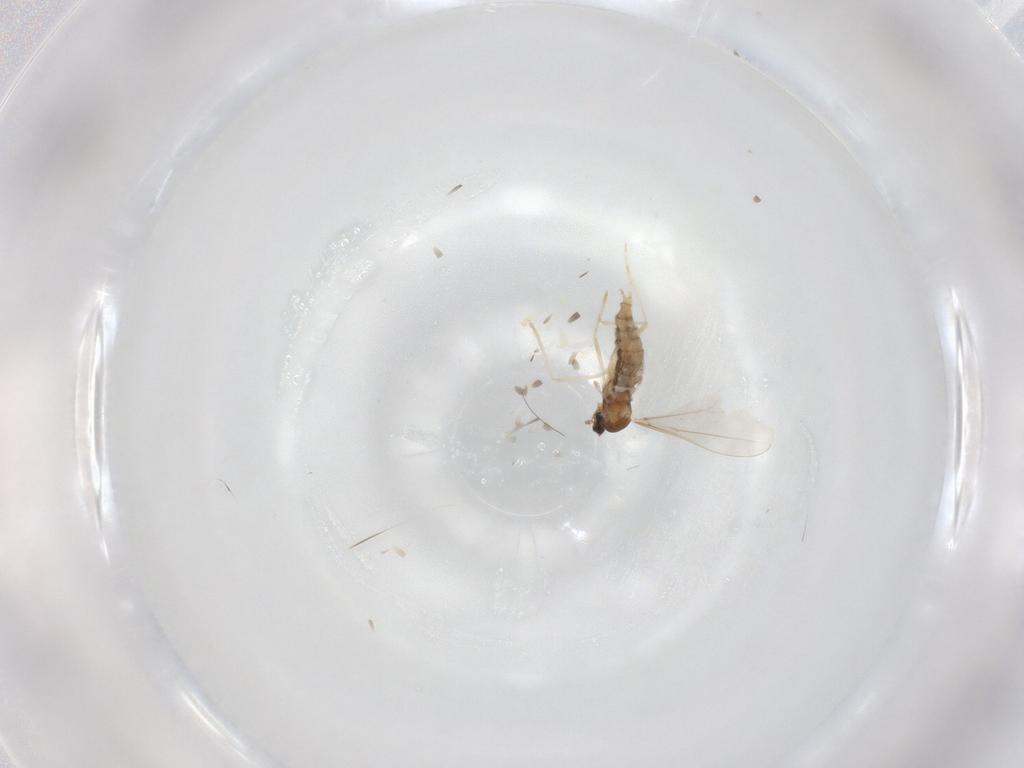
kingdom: Animalia
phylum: Arthropoda
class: Insecta
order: Diptera
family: Cecidomyiidae
